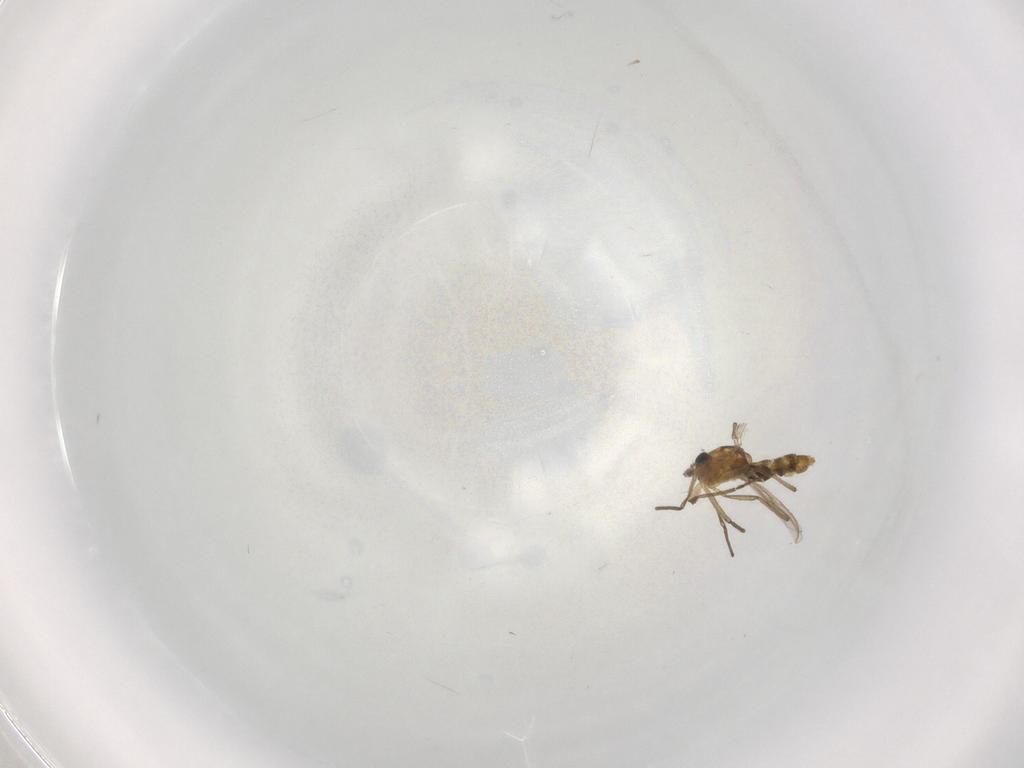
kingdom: Animalia
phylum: Arthropoda
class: Insecta
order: Diptera
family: Chironomidae
